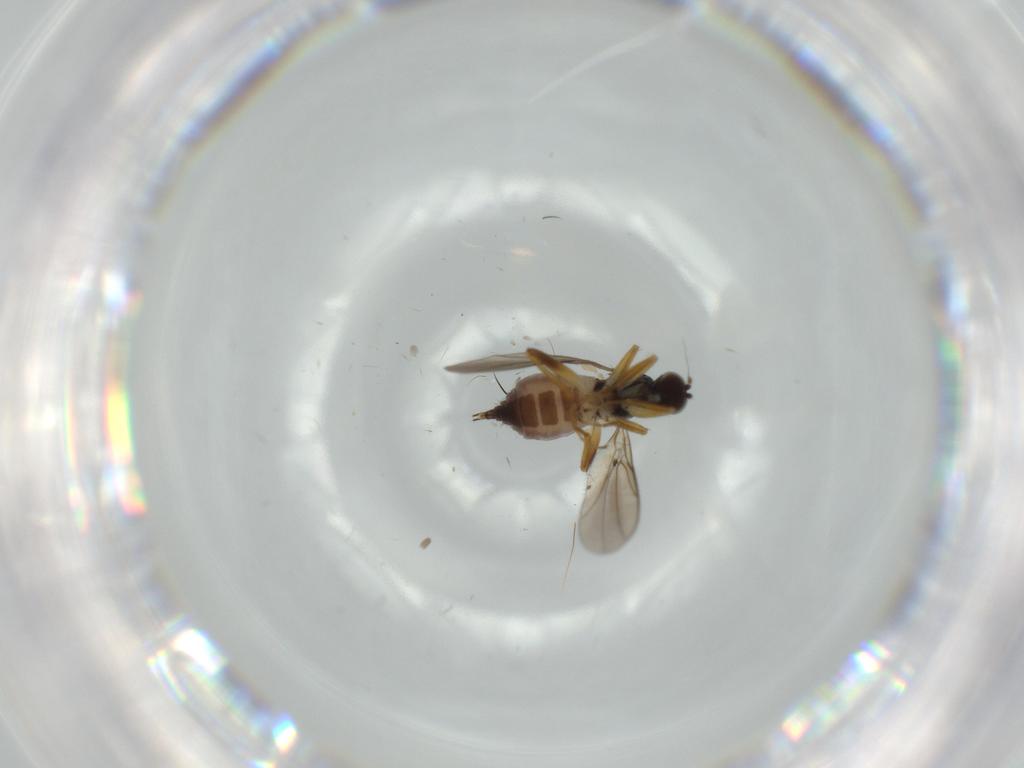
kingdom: Animalia
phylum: Arthropoda
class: Insecta
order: Diptera
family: Hybotidae
